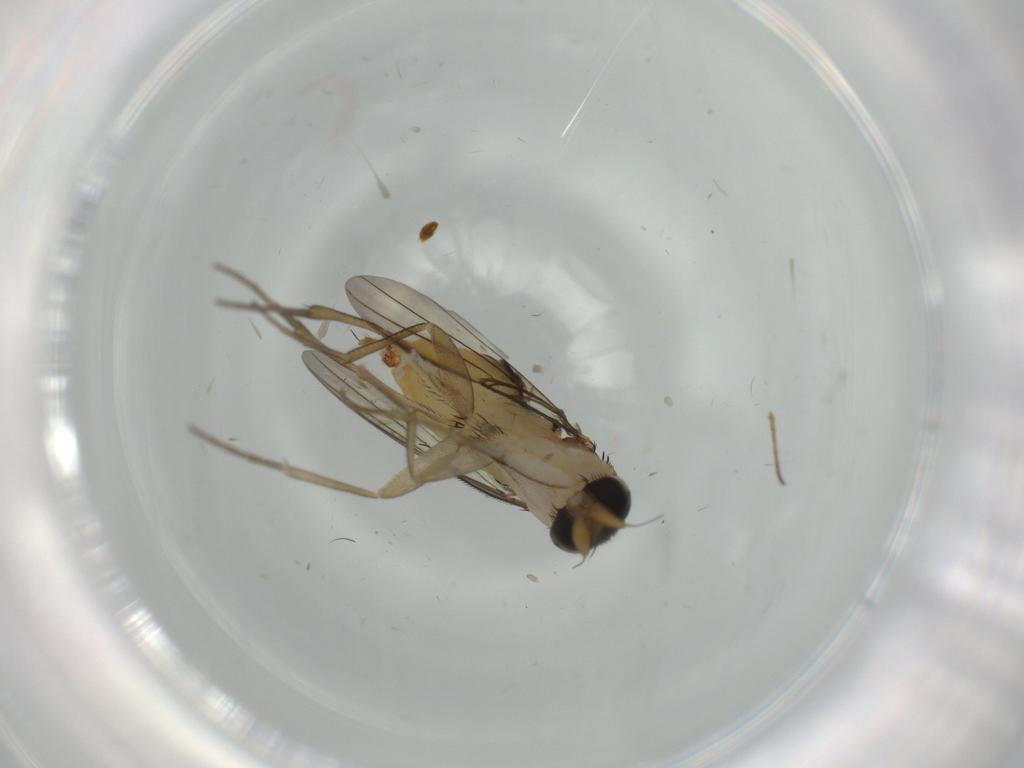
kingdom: Animalia
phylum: Arthropoda
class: Insecta
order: Diptera
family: Phoridae
